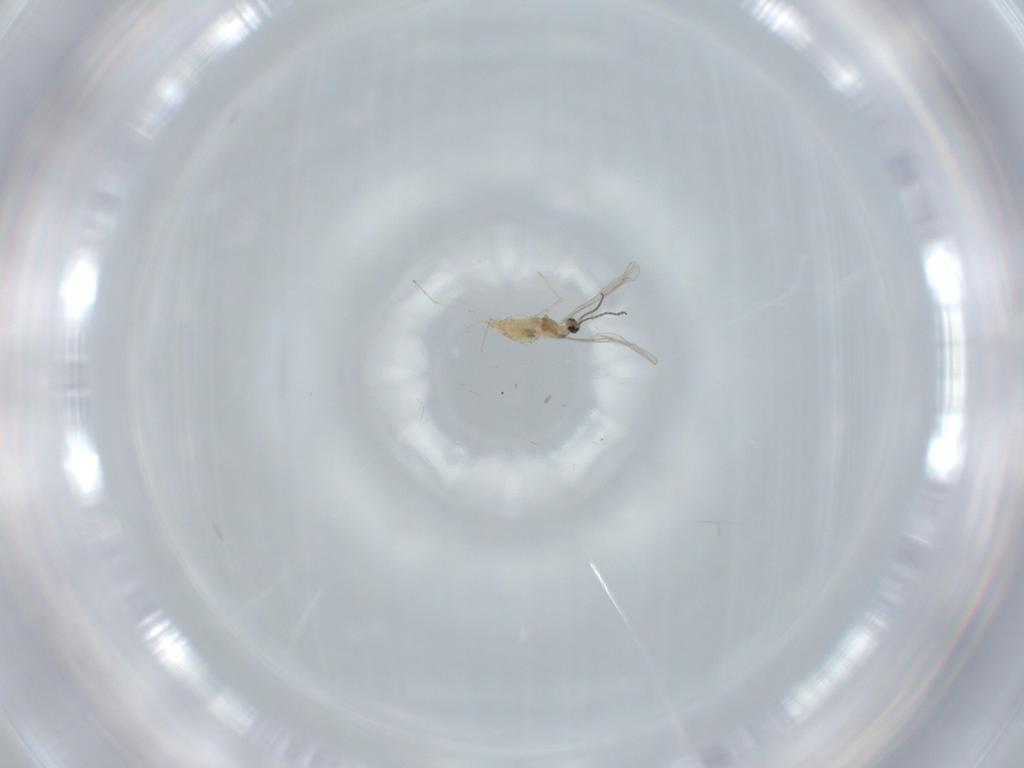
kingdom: Animalia
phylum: Arthropoda
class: Insecta
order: Diptera
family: Cecidomyiidae
